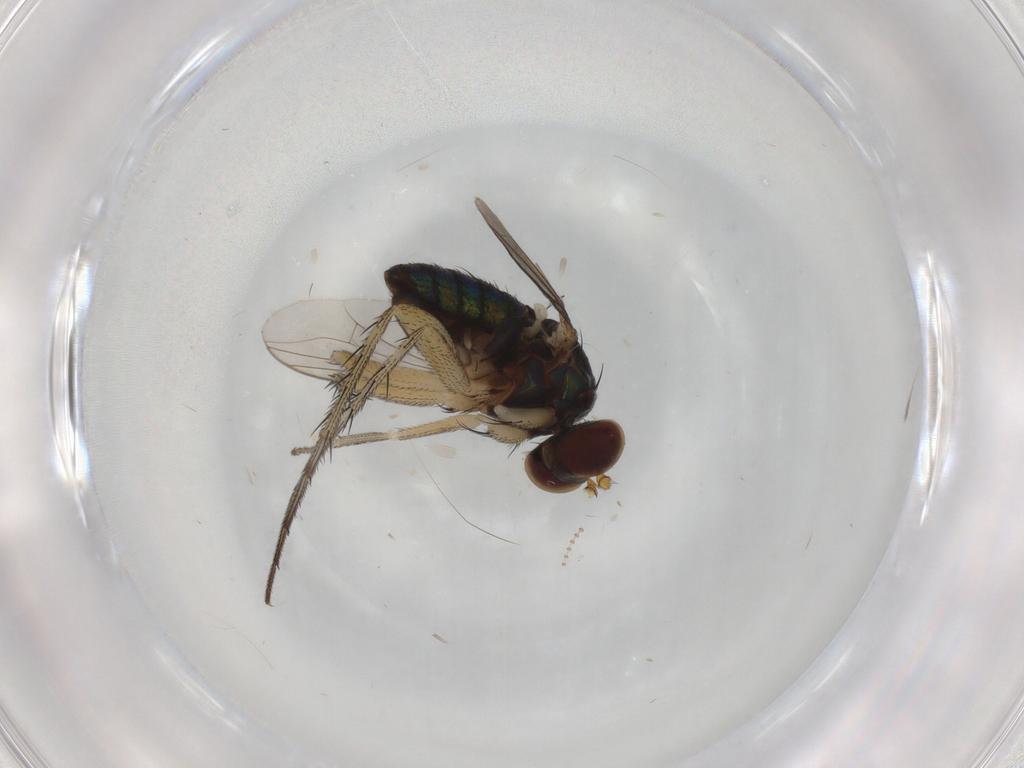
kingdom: Animalia
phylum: Arthropoda
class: Insecta
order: Diptera
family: Dolichopodidae
